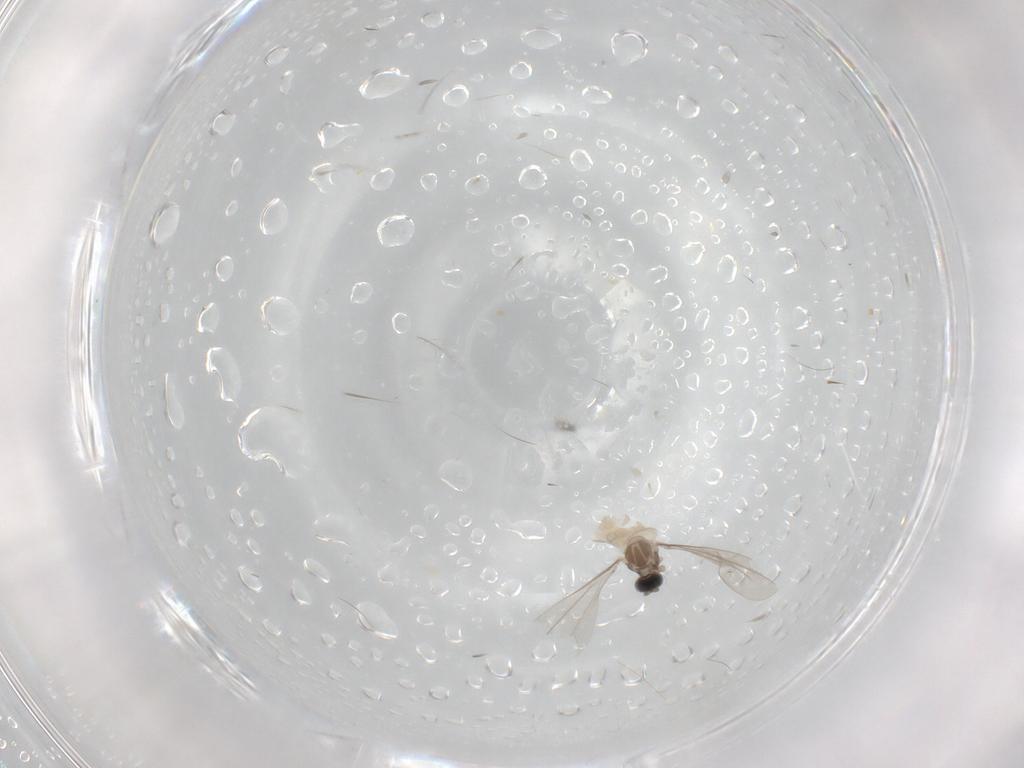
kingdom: Animalia
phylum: Arthropoda
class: Insecta
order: Diptera
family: Cecidomyiidae
